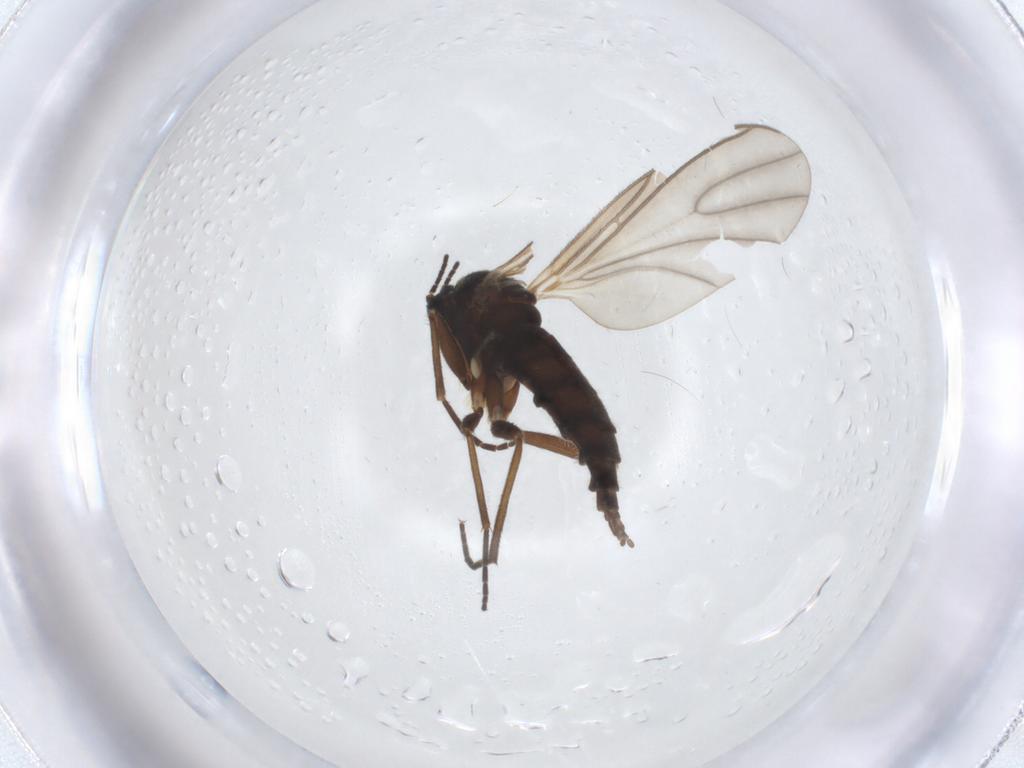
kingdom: Animalia
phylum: Arthropoda
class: Insecta
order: Diptera
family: Sciaridae
